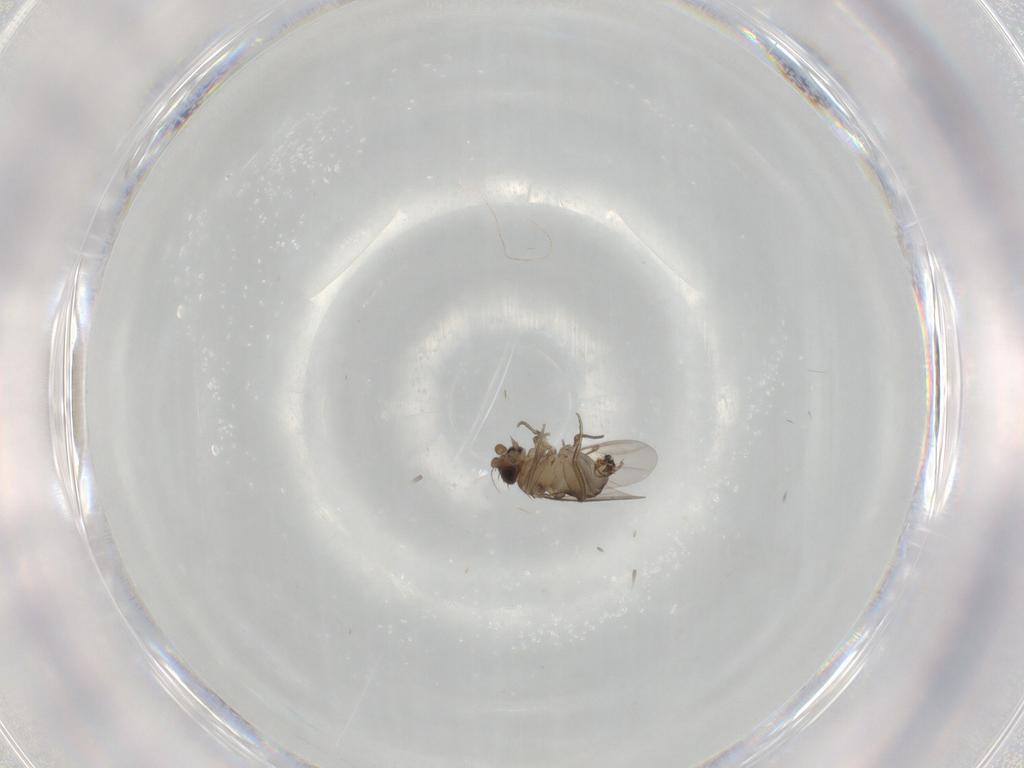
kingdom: Animalia
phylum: Arthropoda
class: Insecta
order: Diptera
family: Phoridae
